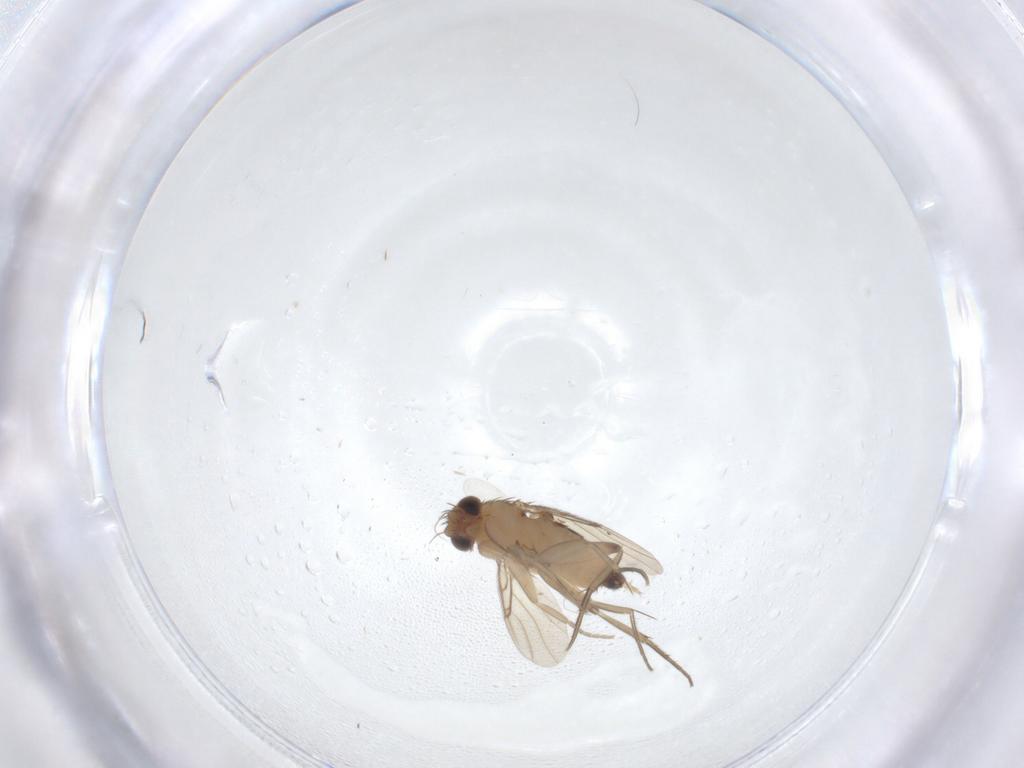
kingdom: Animalia
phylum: Arthropoda
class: Insecta
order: Diptera
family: Phoridae
